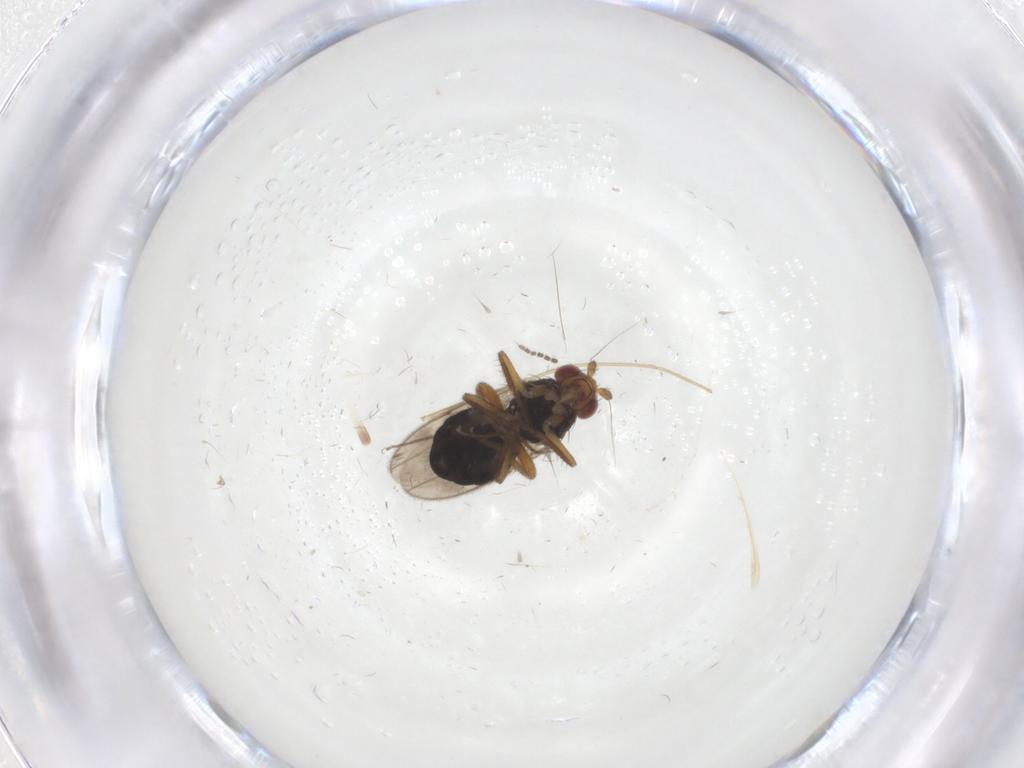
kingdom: Animalia
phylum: Arthropoda
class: Insecta
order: Diptera
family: Sphaeroceridae
